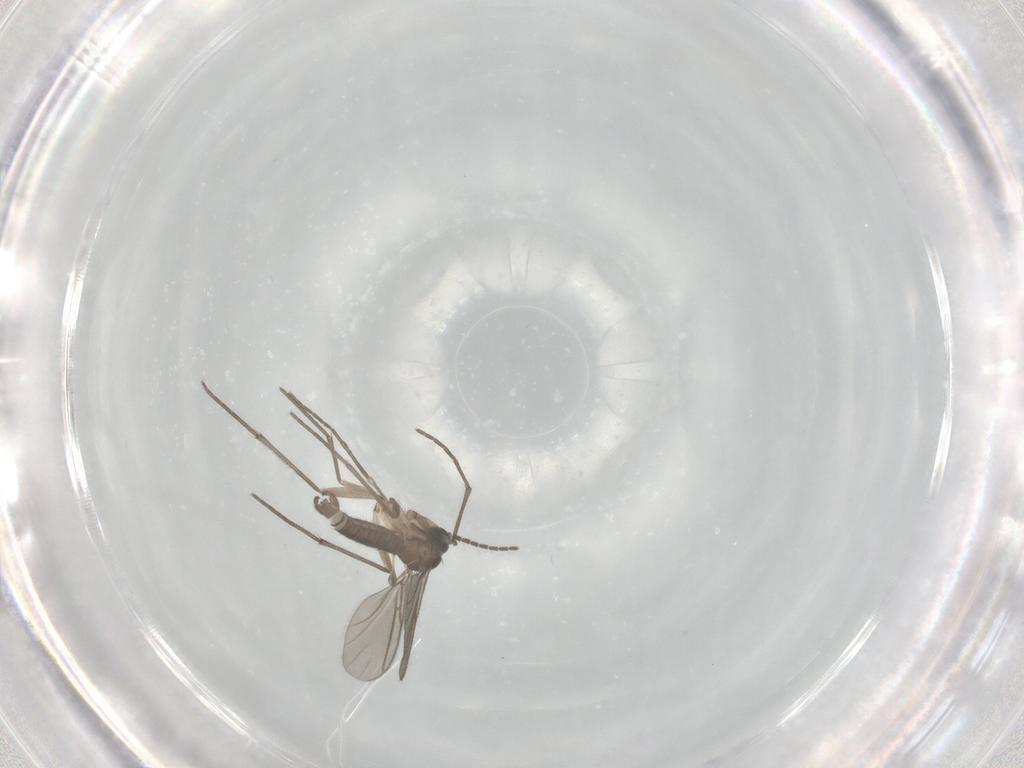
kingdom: Animalia
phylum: Arthropoda
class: Insecta
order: Diptera
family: Sciaridae
